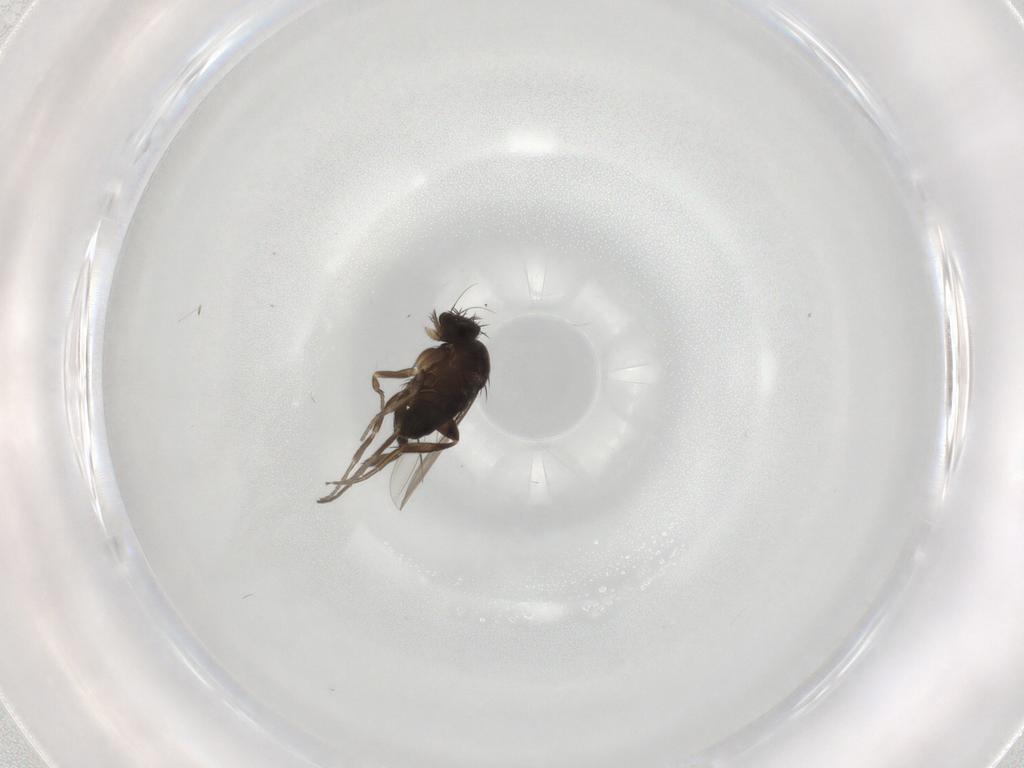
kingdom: Animalia
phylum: Arthropoda
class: Insecta
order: Diptera
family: Phoridae
